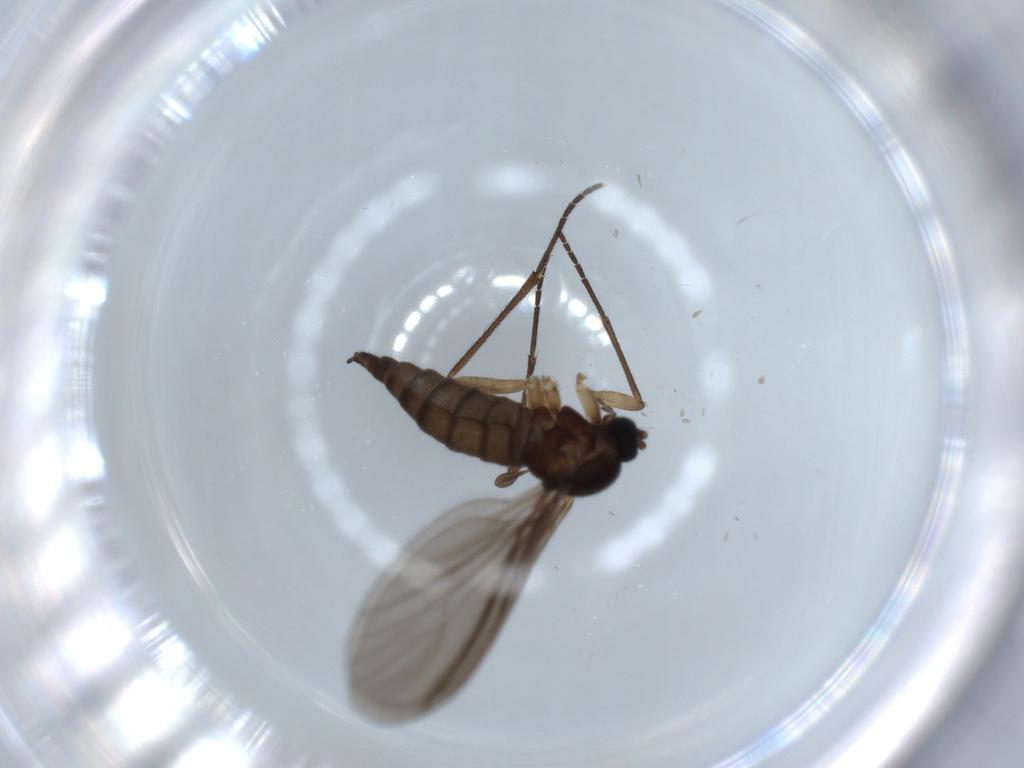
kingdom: Animalia
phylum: Arthropoda
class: Insecta
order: Diptera
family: Sciaridae
